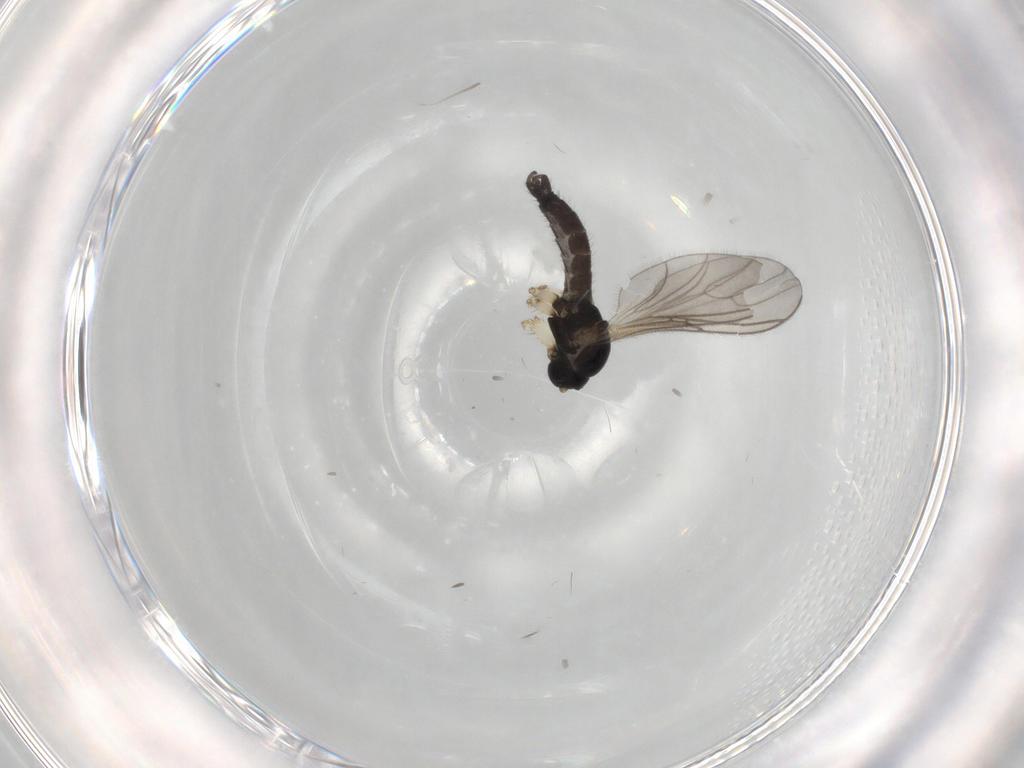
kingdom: Animalia
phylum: Arthropoda
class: Insecta
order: Diptera
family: Sciaridae
